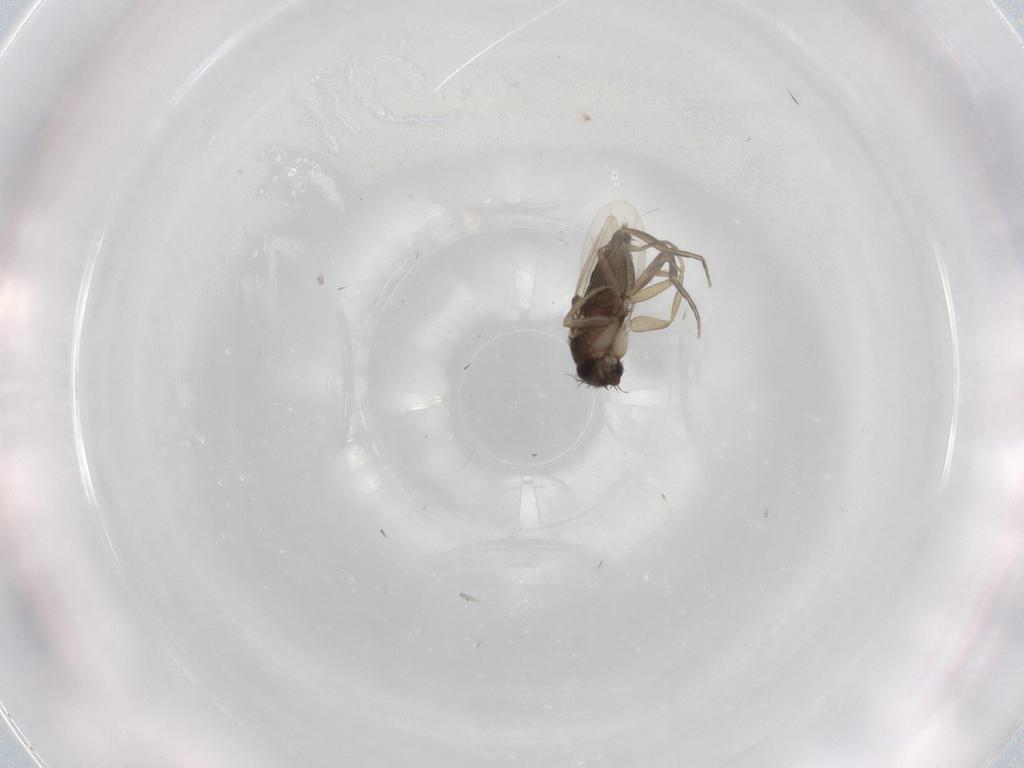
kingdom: Animalia
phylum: Arthropoda
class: Insecta
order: Diptera
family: Phoridae
